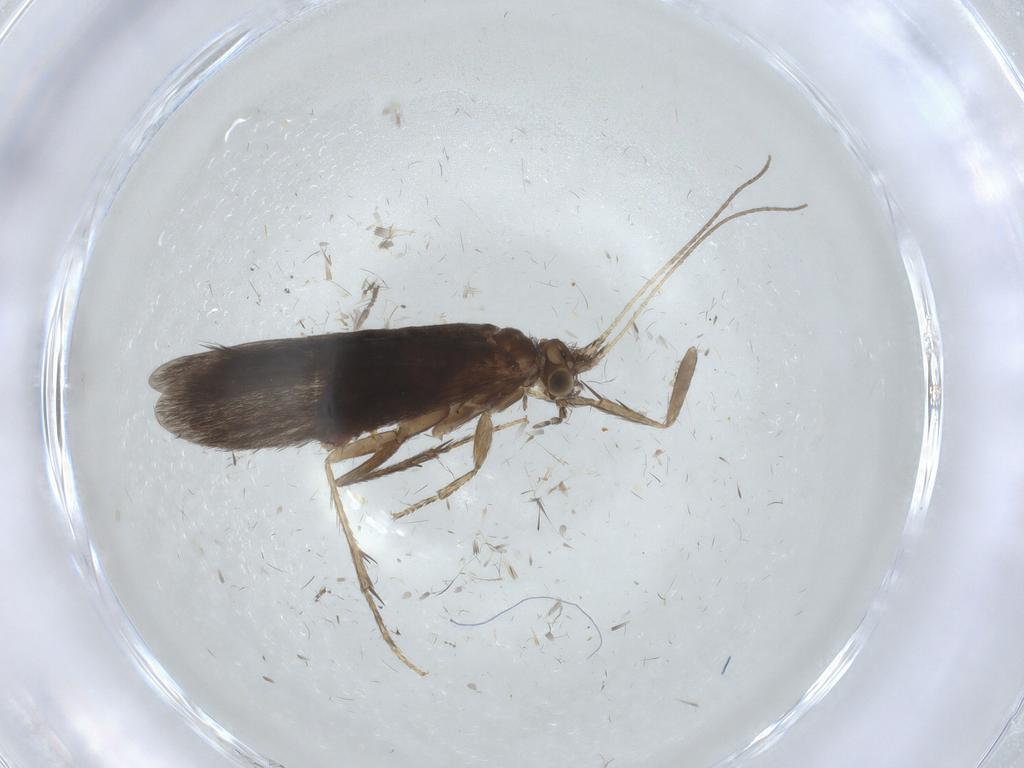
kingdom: Animalia
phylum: Arthropoda
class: Insecta
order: Trichoptera
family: Glossosomatidae
